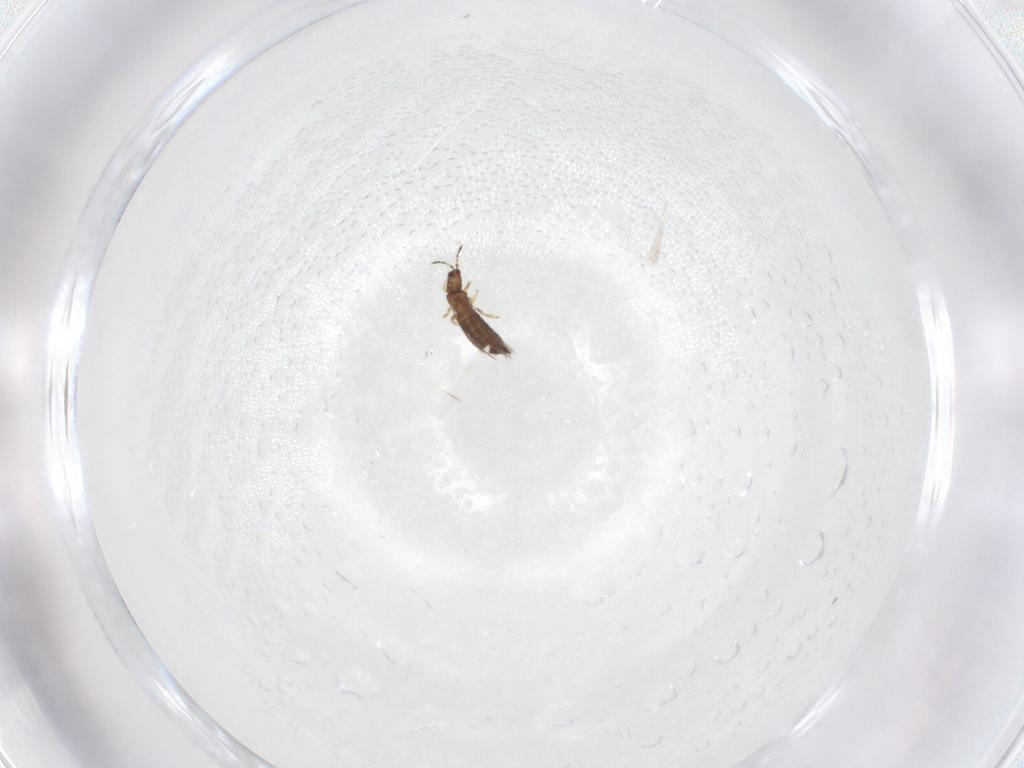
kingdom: Animalia
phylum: Arthropoda
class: Insecta
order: Thysanoptera
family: Thripidae
